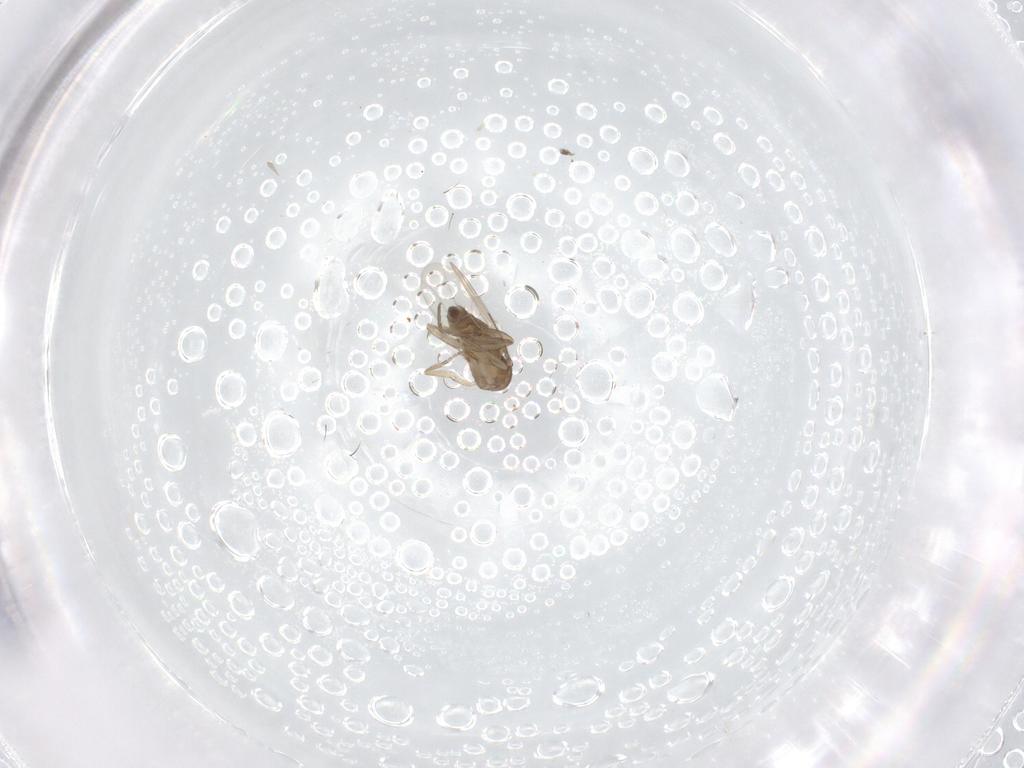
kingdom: Animalia
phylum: Arthropoda
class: Insecta
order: Diptera
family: Phoridae
